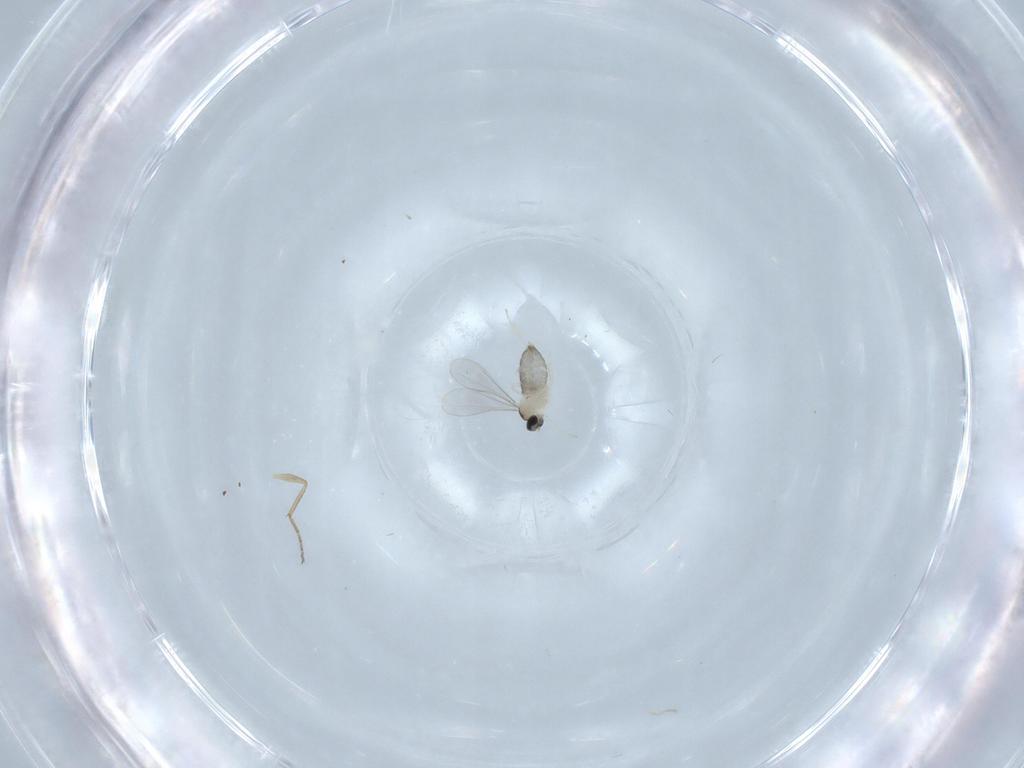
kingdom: Animalia
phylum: Arthropoda
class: Insecta
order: Diptera
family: Cecidomyiidae
